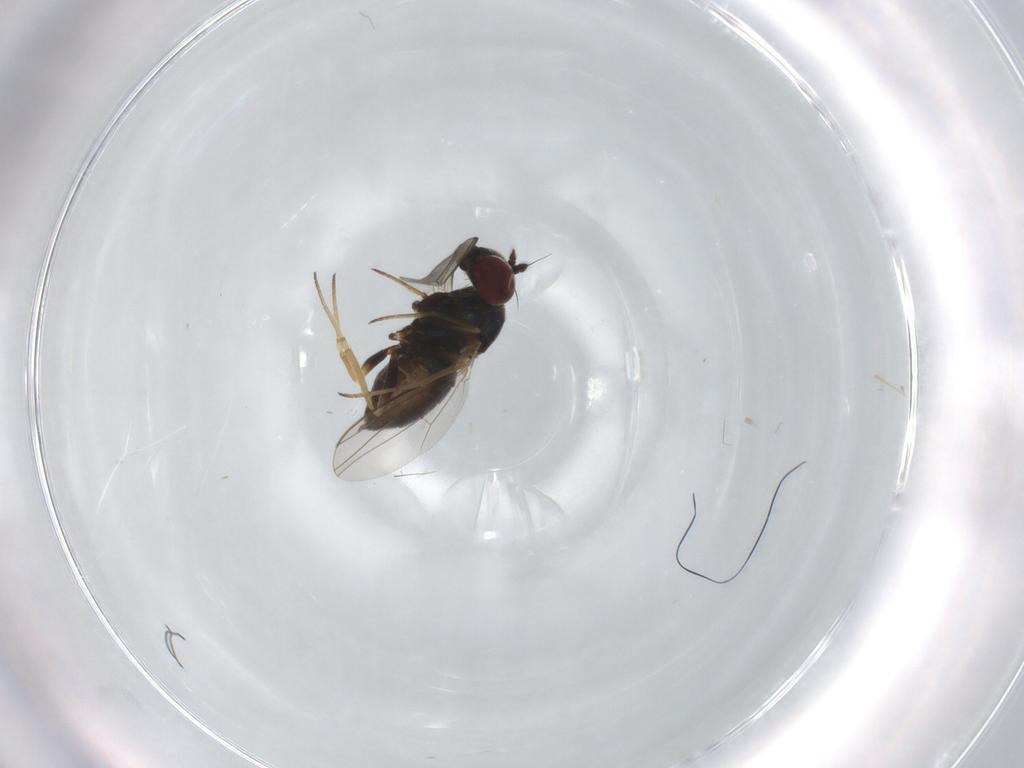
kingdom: Animalia
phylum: Arthropoda
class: Insecta
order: Diptera
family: Dolichopodidae
